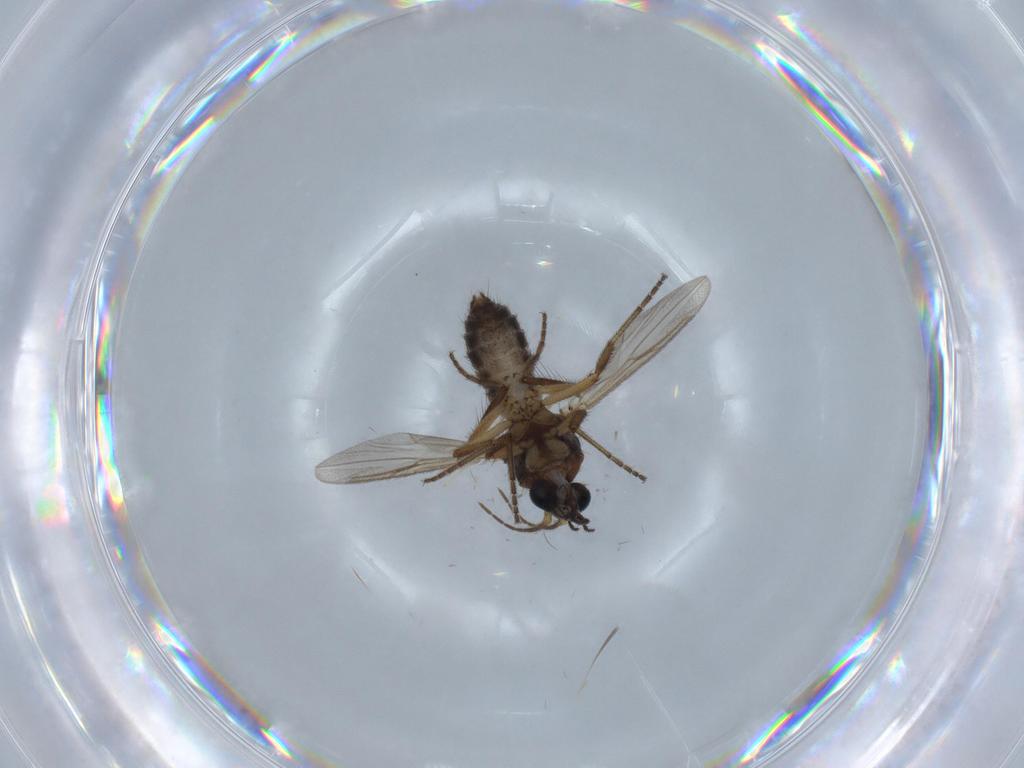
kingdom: Animalia
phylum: Arthropoda
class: Insecta
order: Diptera
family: Ceratopogonidae
